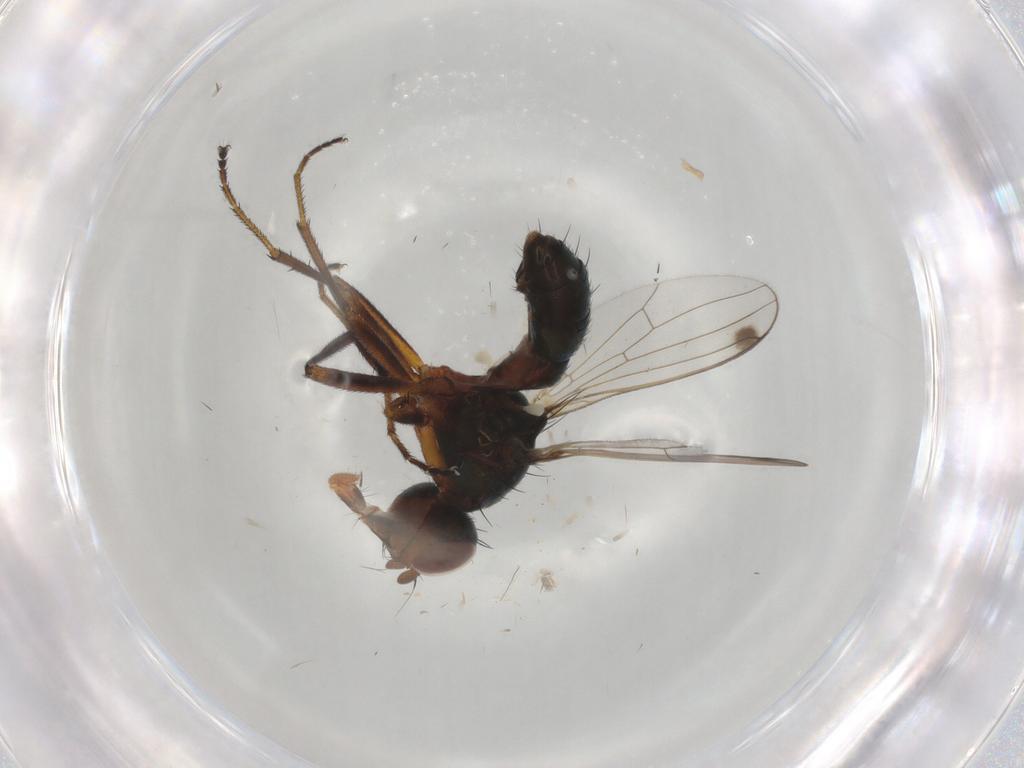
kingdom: Animalia
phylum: Arthropoda
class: Insecta
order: Diptera
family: Sepsidae
